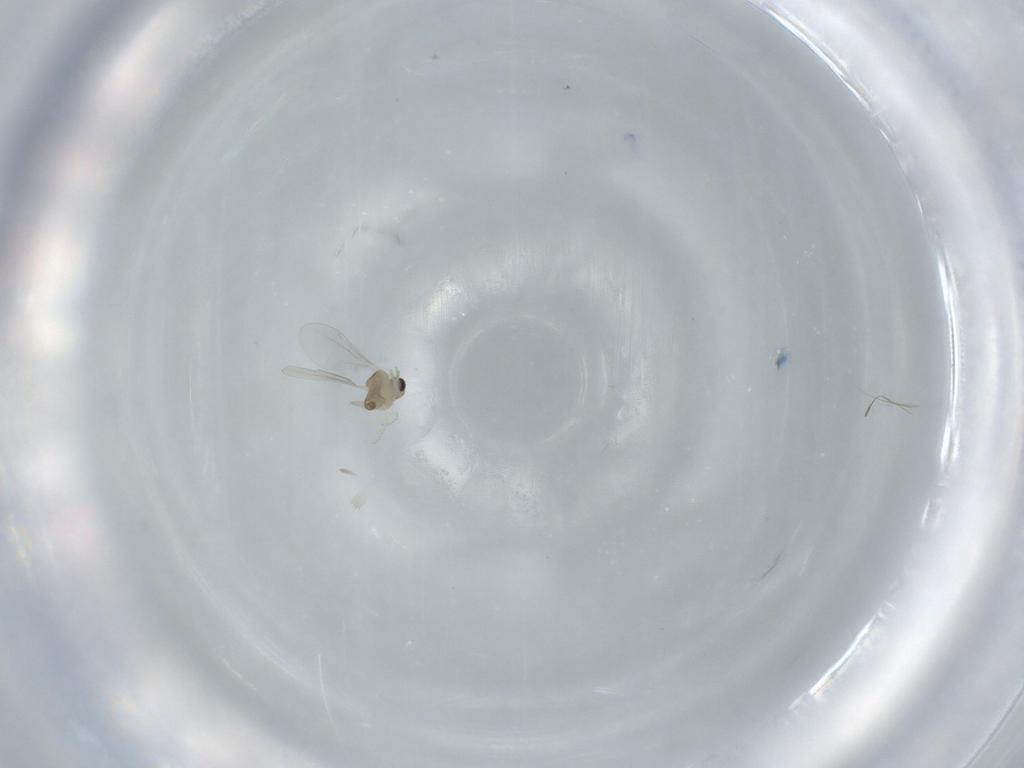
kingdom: Animalia
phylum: Arthropoda
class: Insecta
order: Diptera
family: Cecidomyiidae
